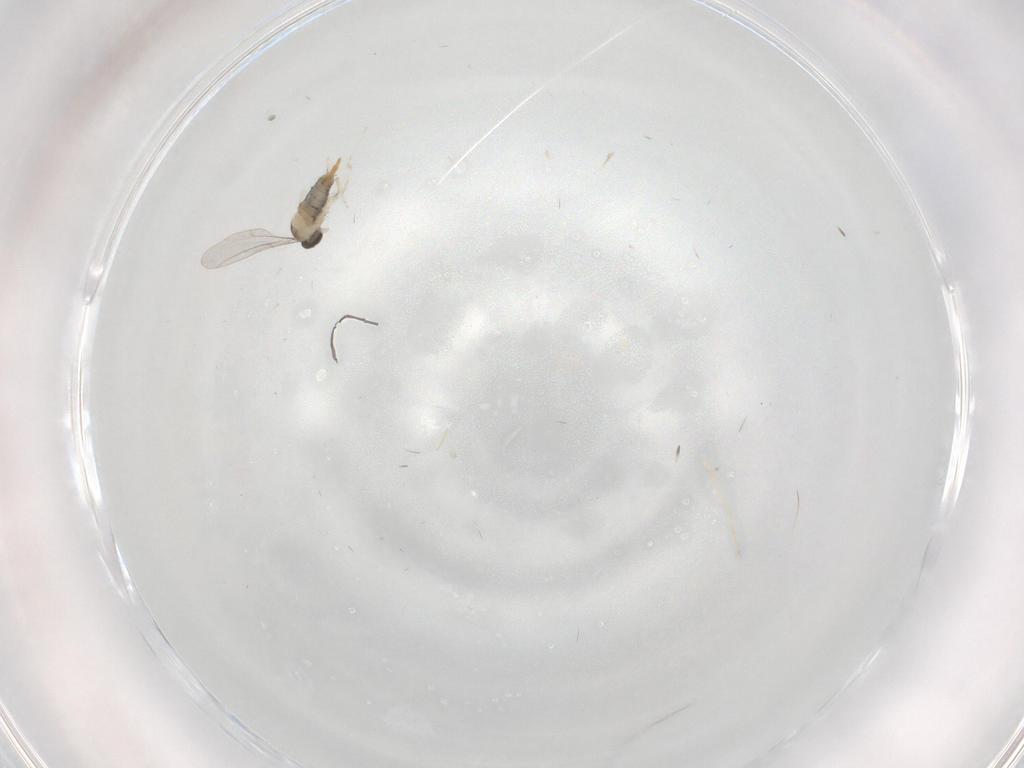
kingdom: Animalia
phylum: Arthropoda
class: Insecta
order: Diptera
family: Cecidomyiidae
